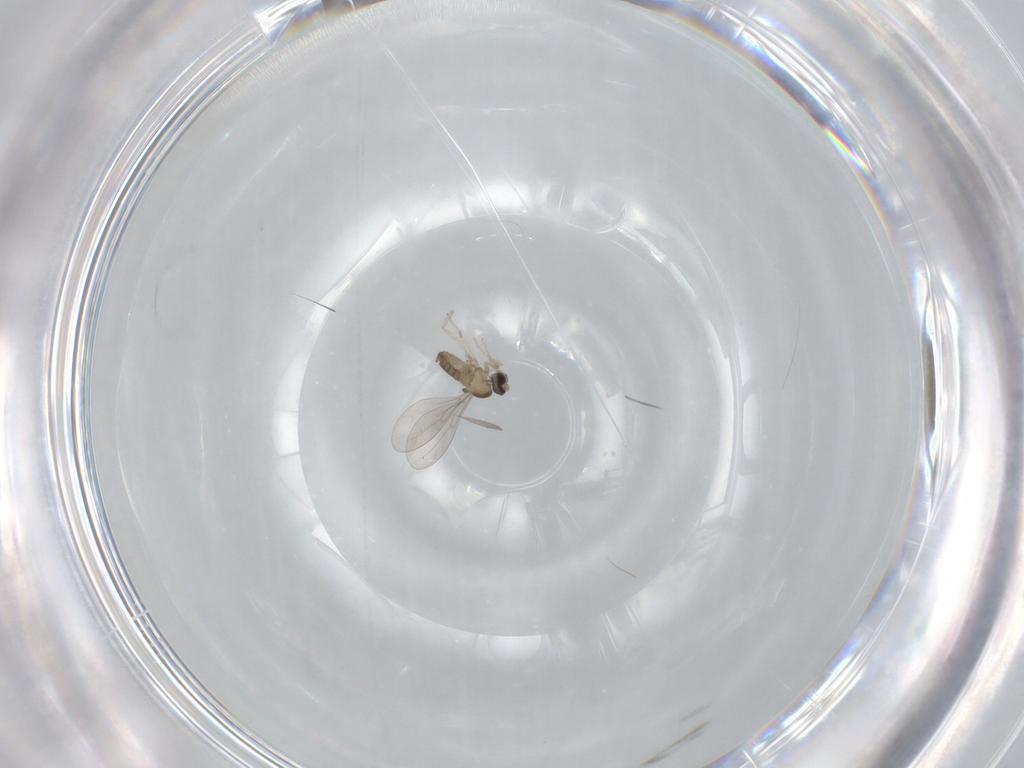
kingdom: Animalia
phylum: Arthropoda
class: Insecta
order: Diptera
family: Cecidomyiidae
